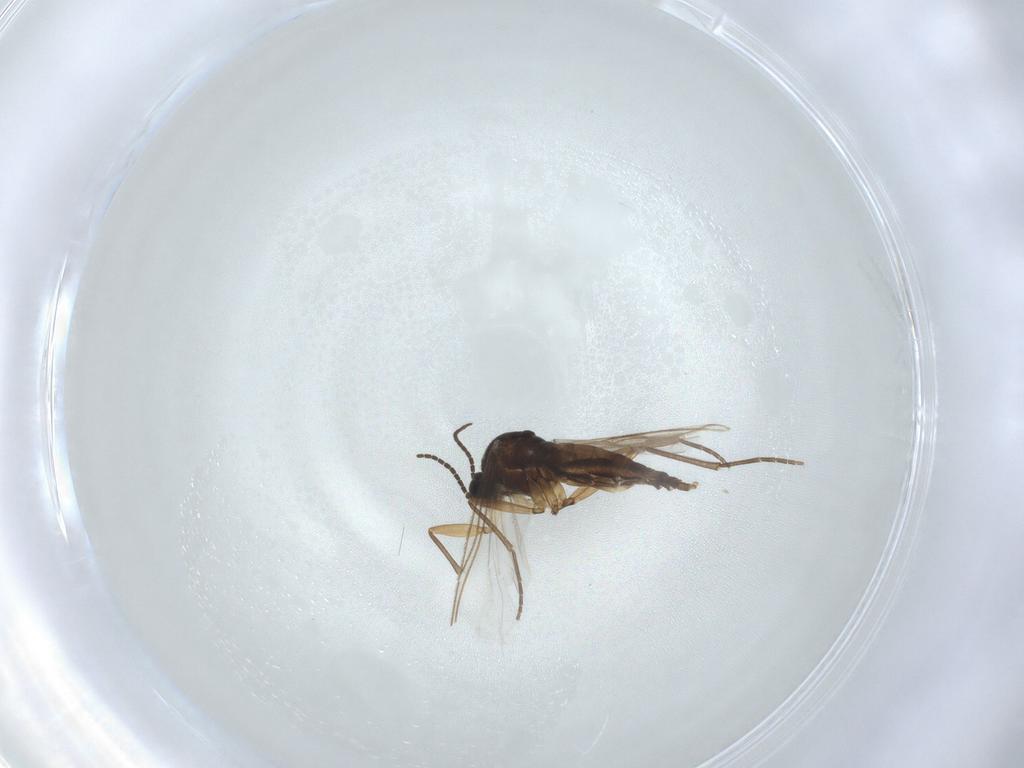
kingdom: Animalia
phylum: Arthropoda
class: Insecta
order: Diptera
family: Sciaridae
